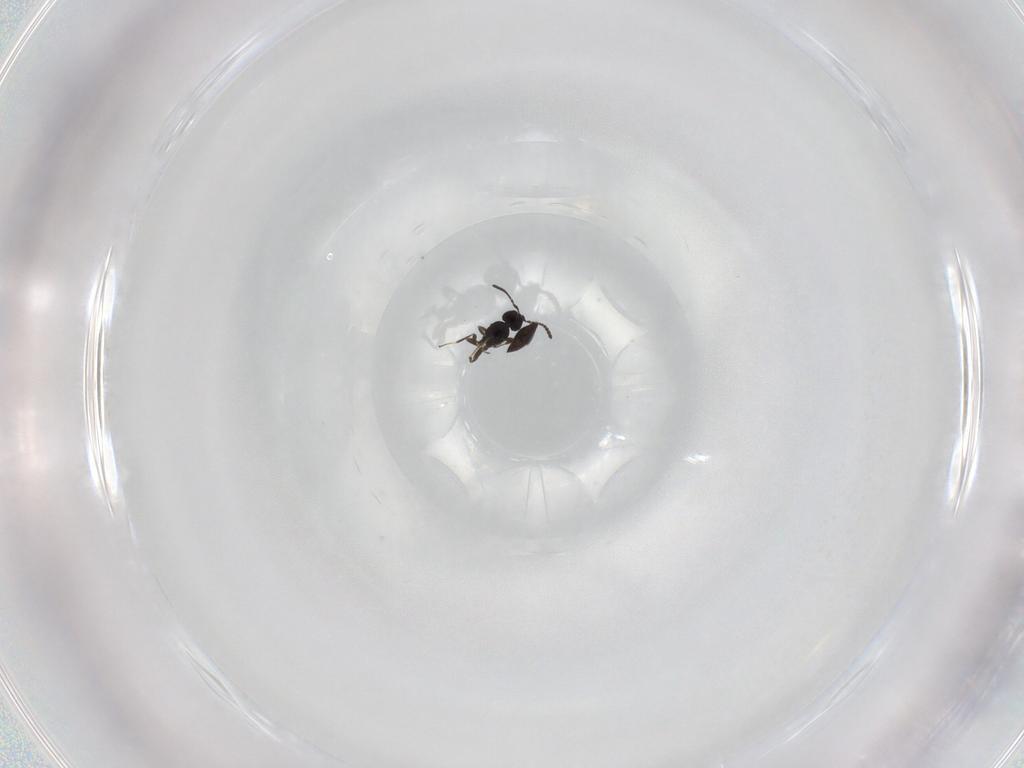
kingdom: Animalia
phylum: Arthropoda
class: Insecta
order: Hymenoptera
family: Scelionidae
